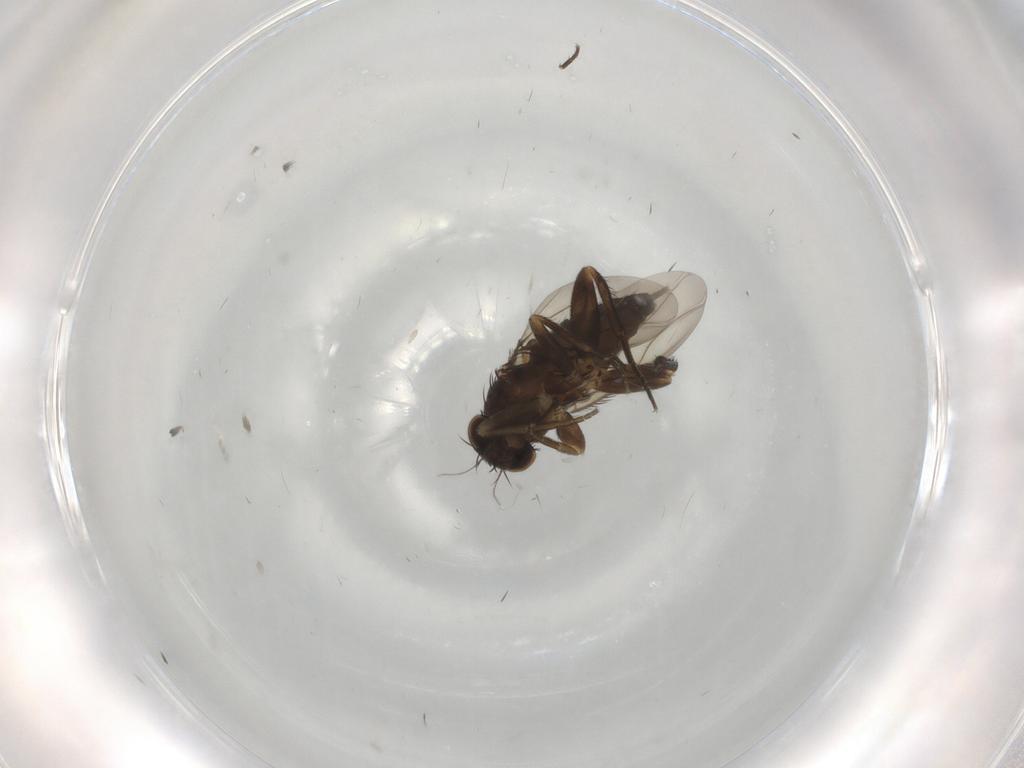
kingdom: Animalia
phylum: Arthropoda
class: Insecta
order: Diptera
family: Phoridae
